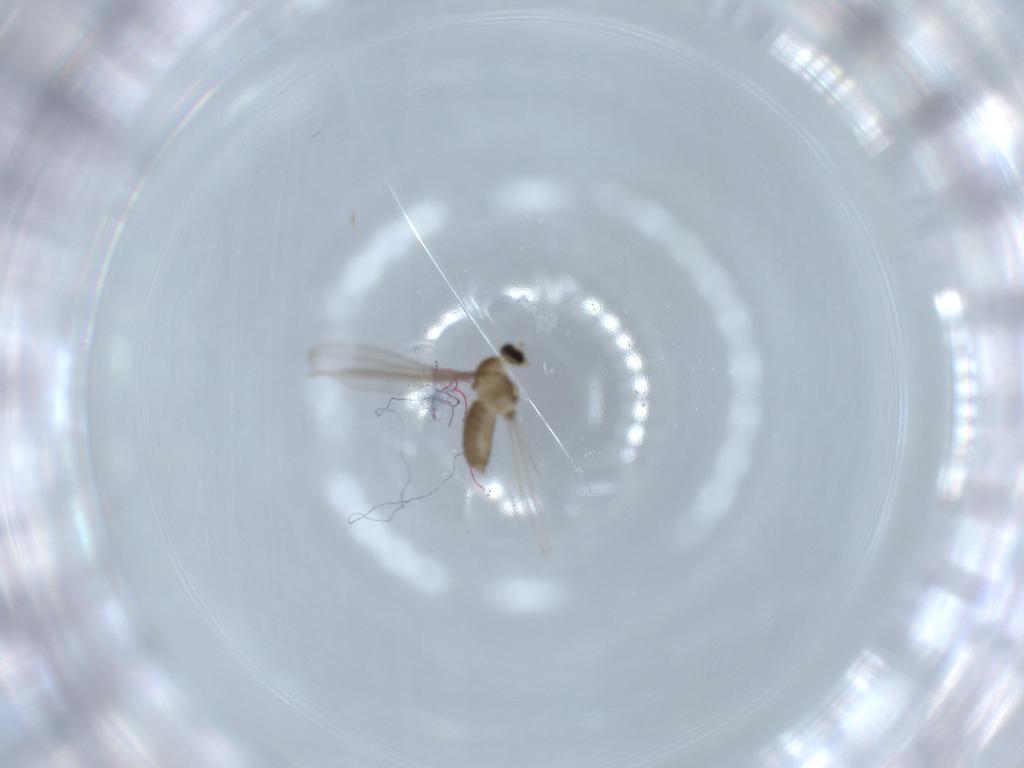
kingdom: Animalia
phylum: Arthropoda
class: Insecta
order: Diptera
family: Cecidomyiidae
